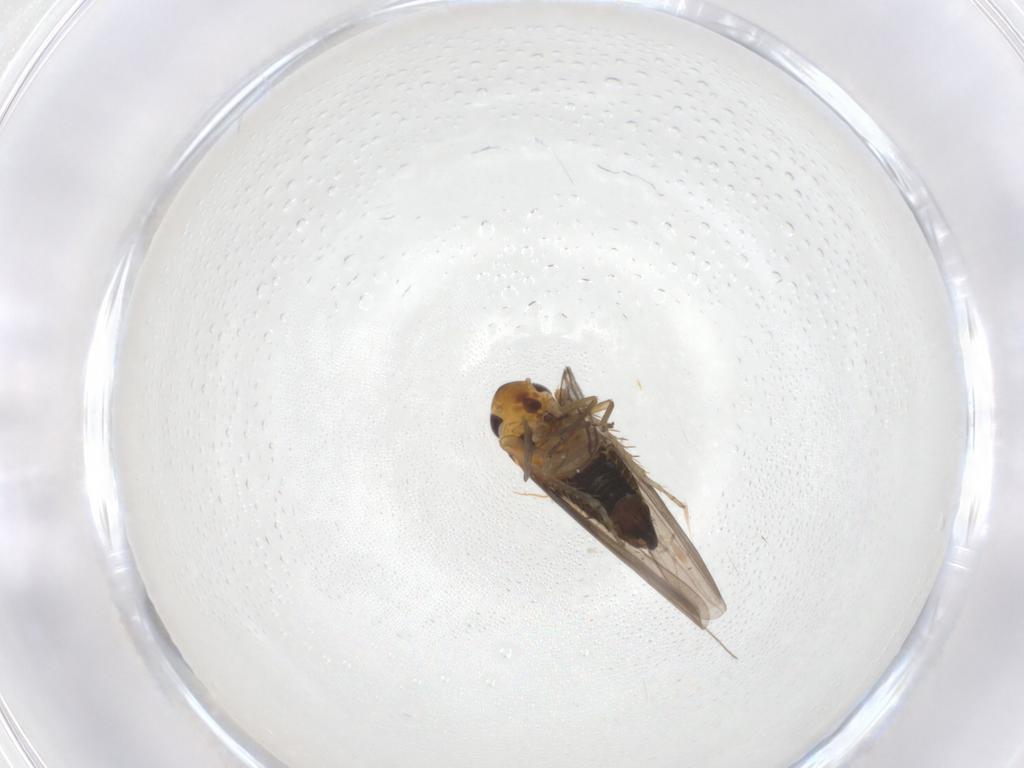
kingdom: Animalia
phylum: Arthropoda
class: Insecta
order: Hemiptera
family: Cicadellidae
